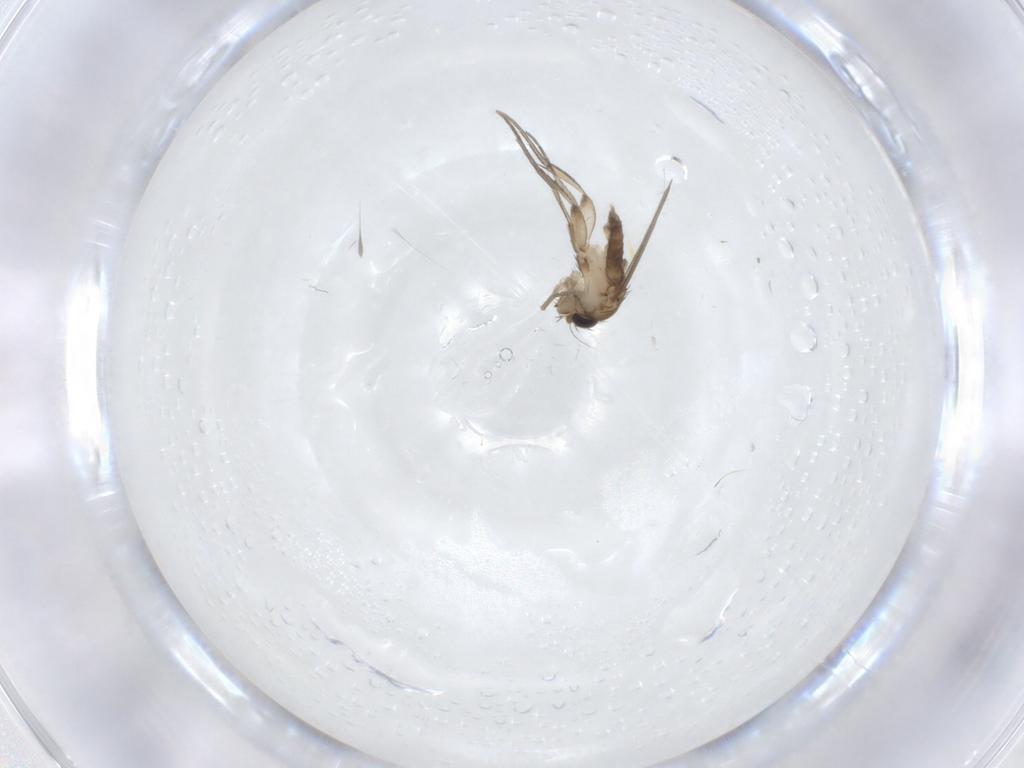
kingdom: Animalia
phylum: Arthropoda
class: Insecta
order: Diptera
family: Phoridae
